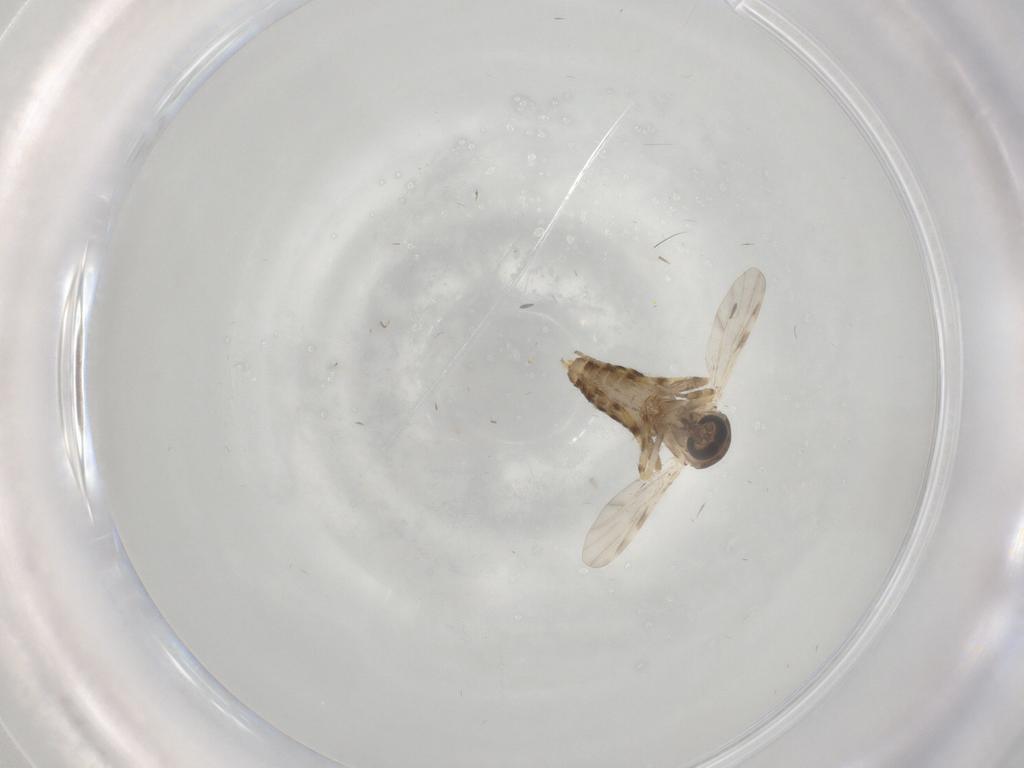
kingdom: Animalia
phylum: Arthropoda
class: Insecta
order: Diptera
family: Ceratopogonidae
